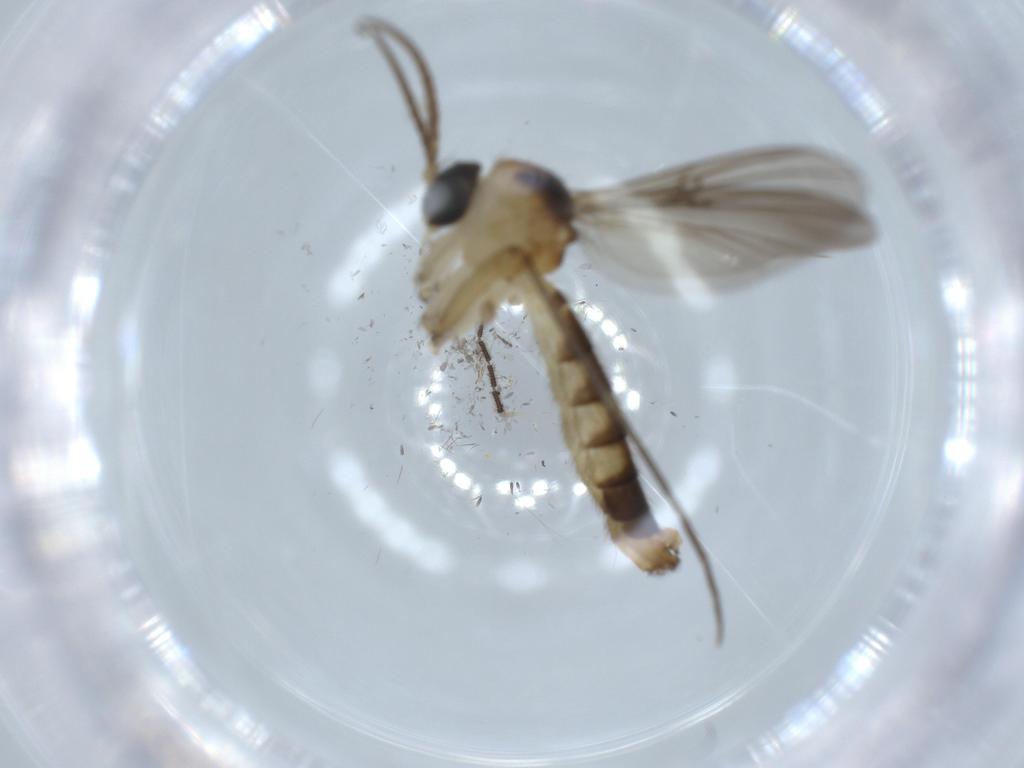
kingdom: Animalia
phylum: Arthropoda
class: Insecta
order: Diptera
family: Mycetophilidae
